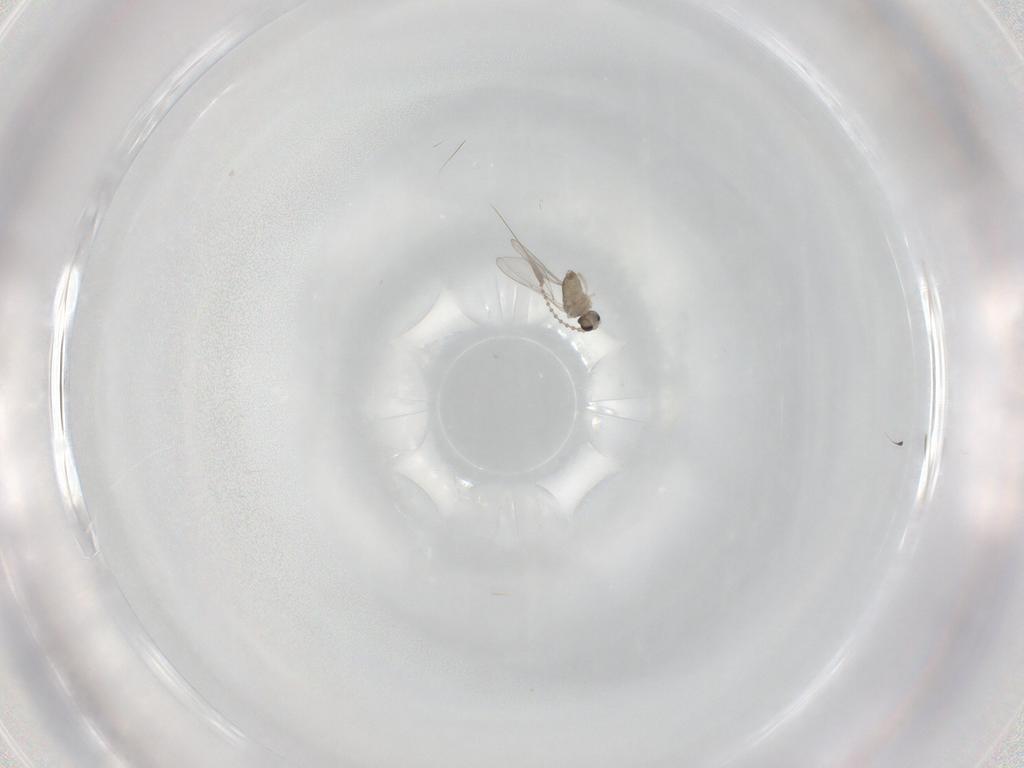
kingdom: Animalia
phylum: Arthropoda
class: Insecta
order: Diptera
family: Cecidomyiidae
